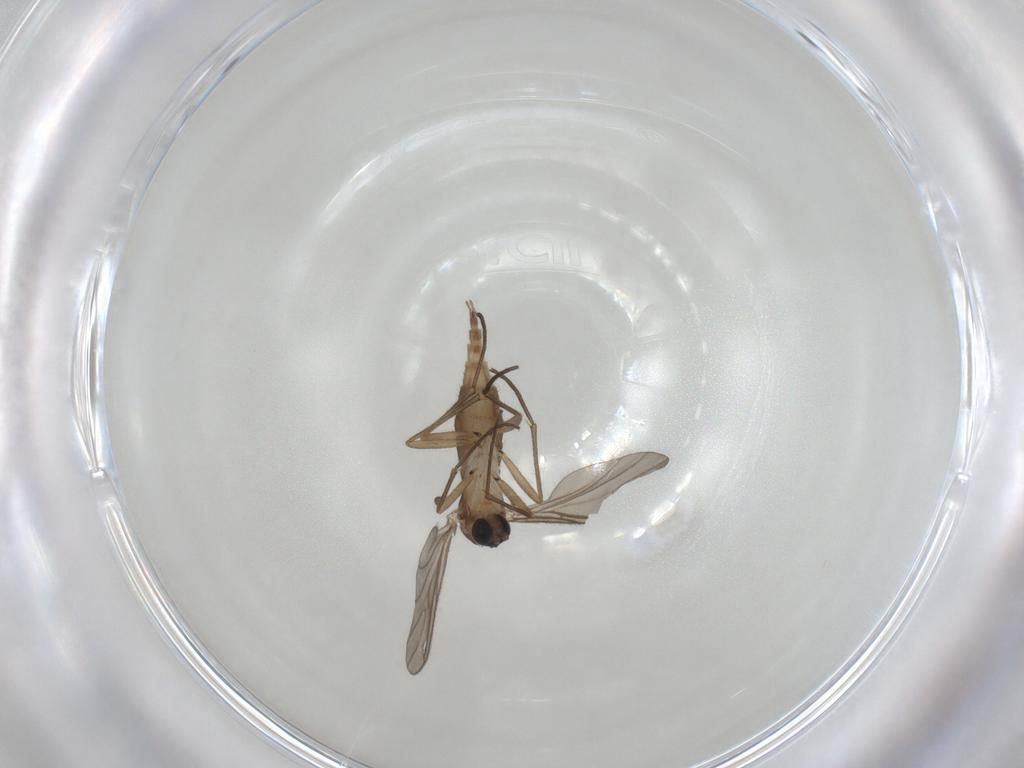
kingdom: Animalia
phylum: Arthropoda
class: Insecta
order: Diptera
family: Sciaridae
